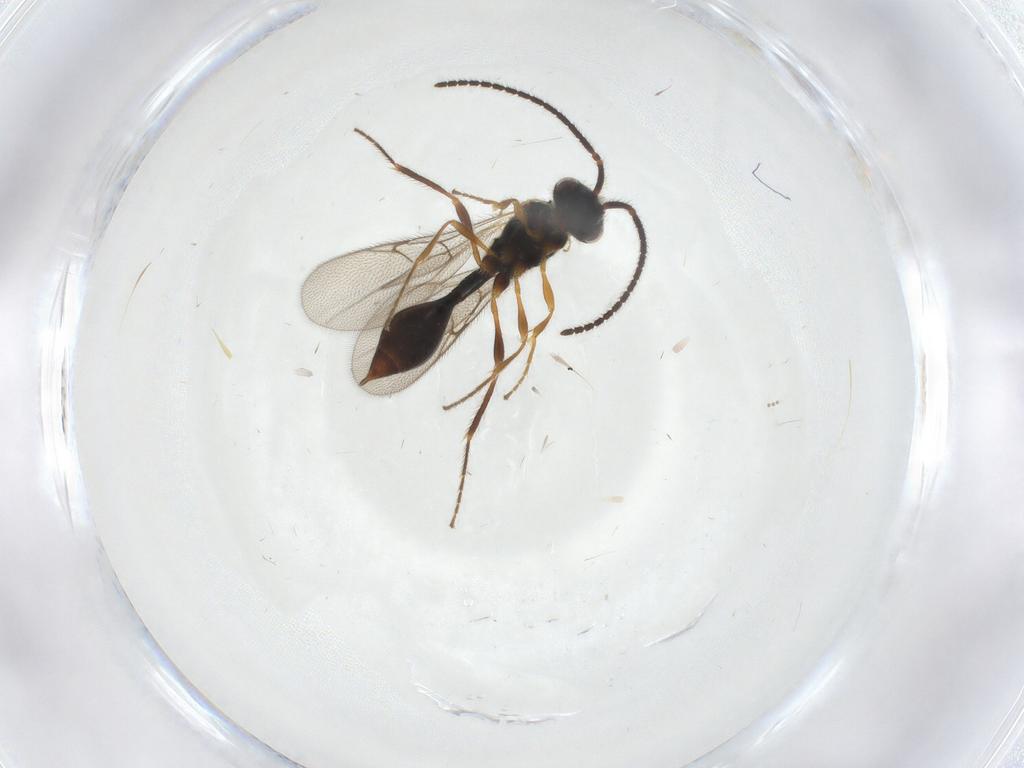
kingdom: Animalia
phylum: Arthropoda
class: Insecta
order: Hymenoptera
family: Diapriidae
